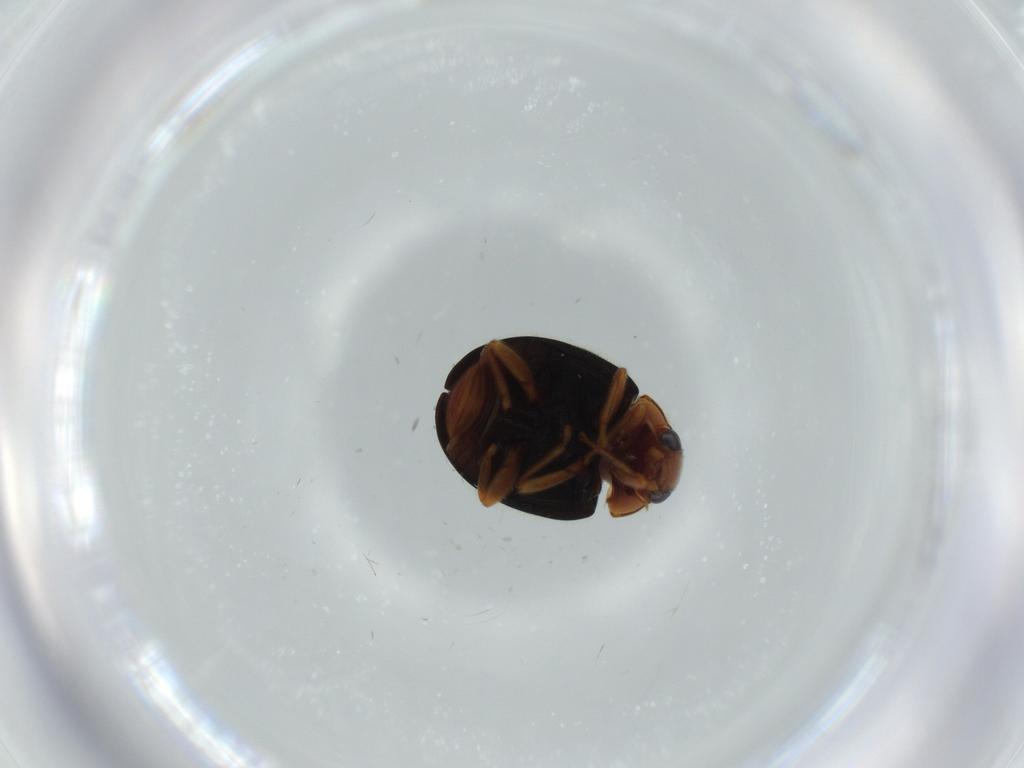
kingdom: Animalia
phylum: Arthropoda
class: Insecta
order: Coleoptera
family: Coccinellidae
